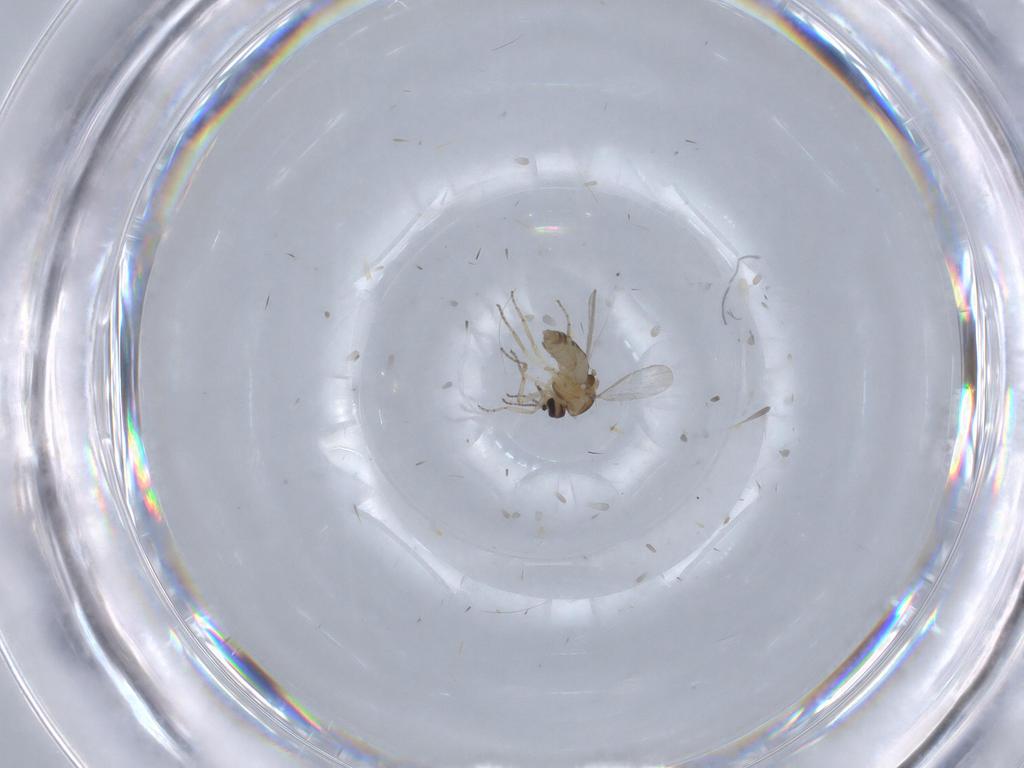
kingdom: Animalia
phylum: Arthropoda
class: Insecta
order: Diptera
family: Ceratopogonidae
